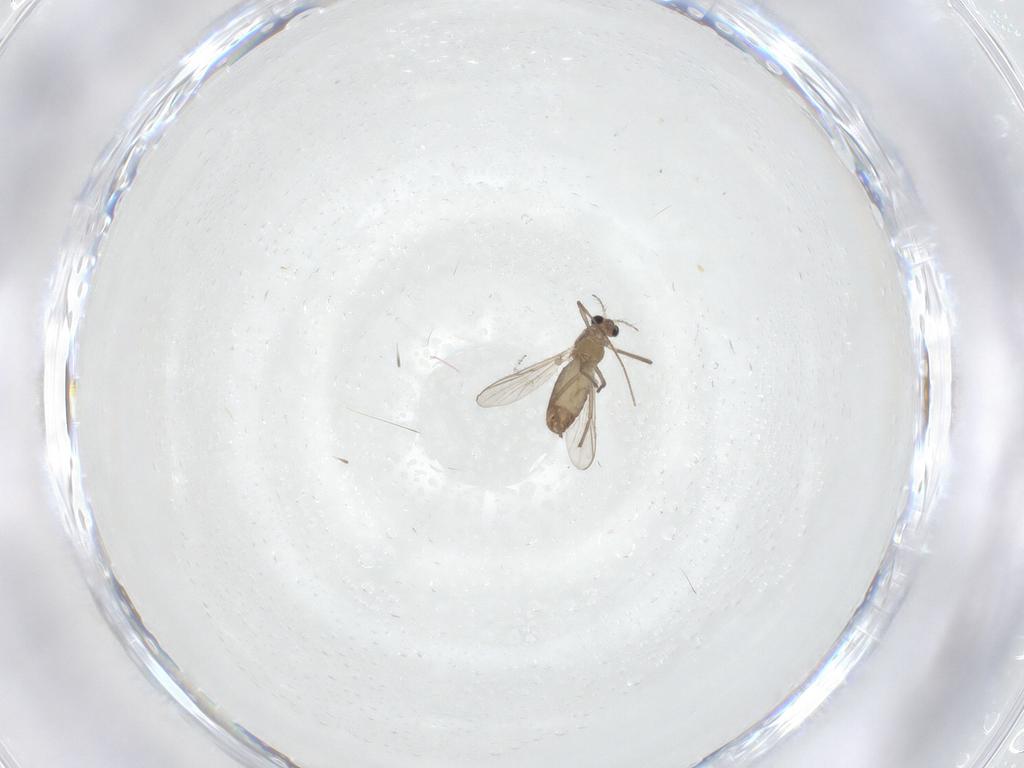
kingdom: Animalia
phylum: Arthropoda
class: Insecta
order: Diptera
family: Chironomidae
